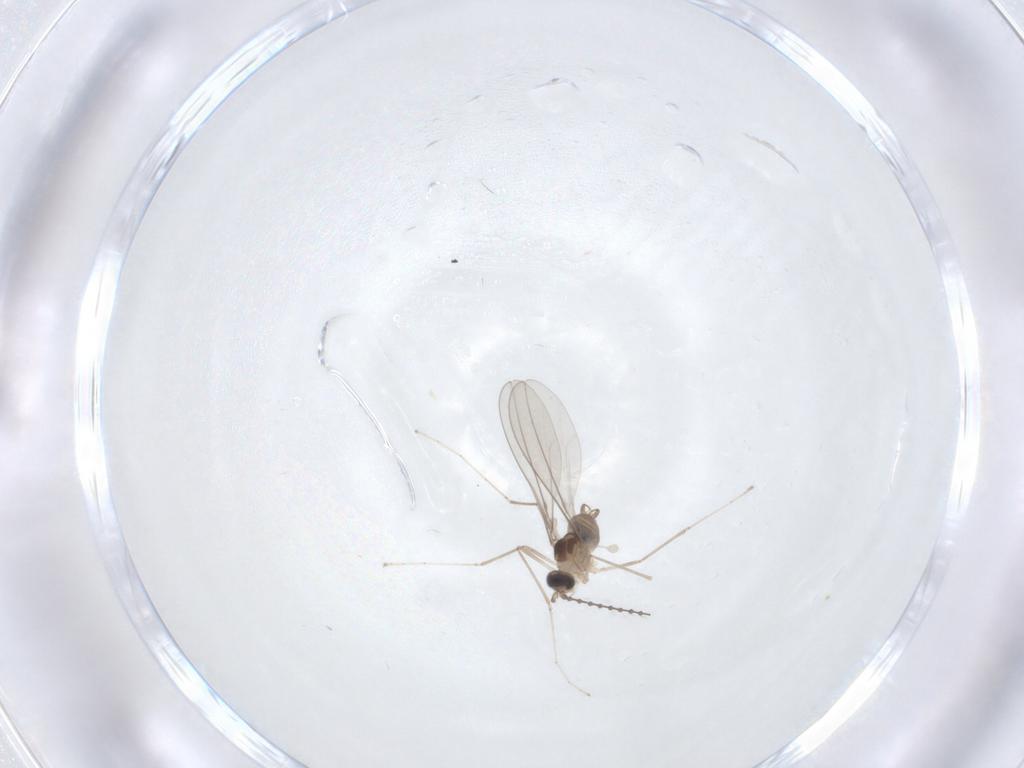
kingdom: Animalia
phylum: Arthropoda
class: Insecta
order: Diptera
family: Cecidomyiidae
